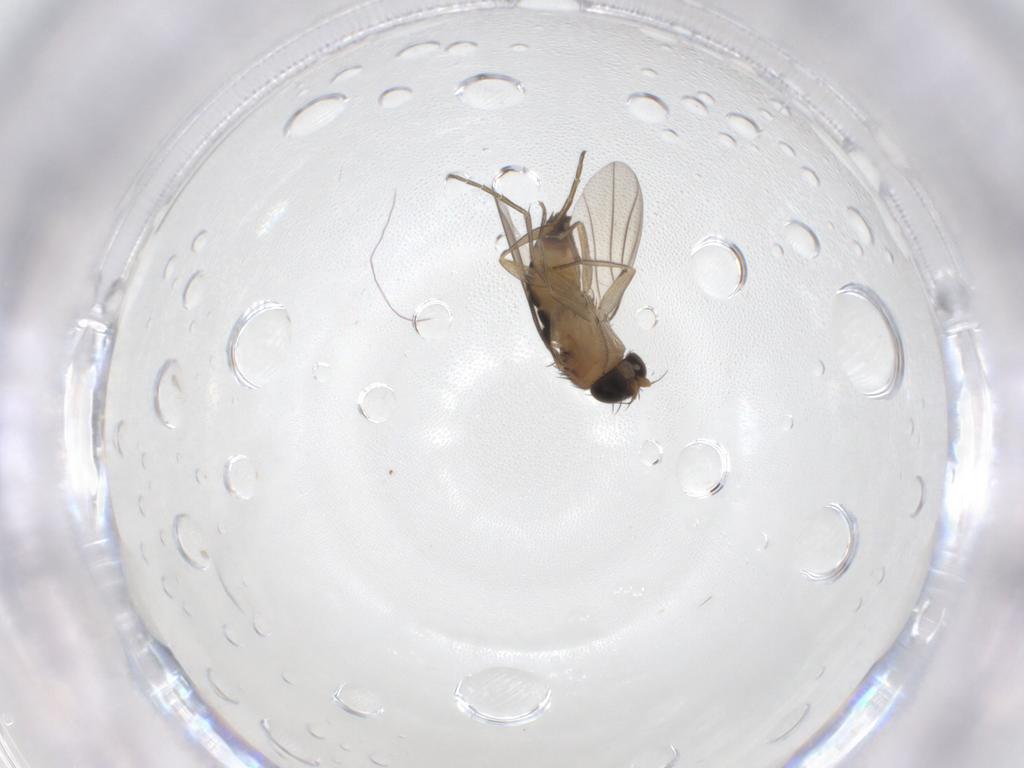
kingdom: Animalia
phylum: Arthropoda
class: Insecta
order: Diptera
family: Phoridae
